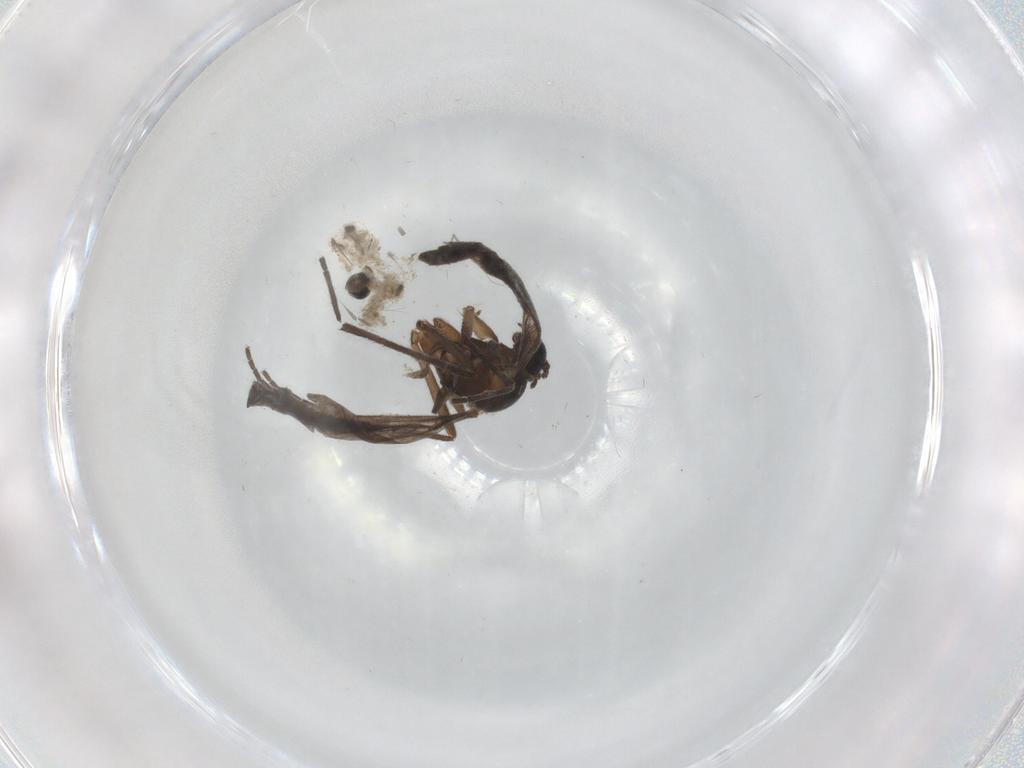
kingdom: Animalia
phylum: Arthropoda
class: Insecta
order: Diptera
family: Sciaridae
